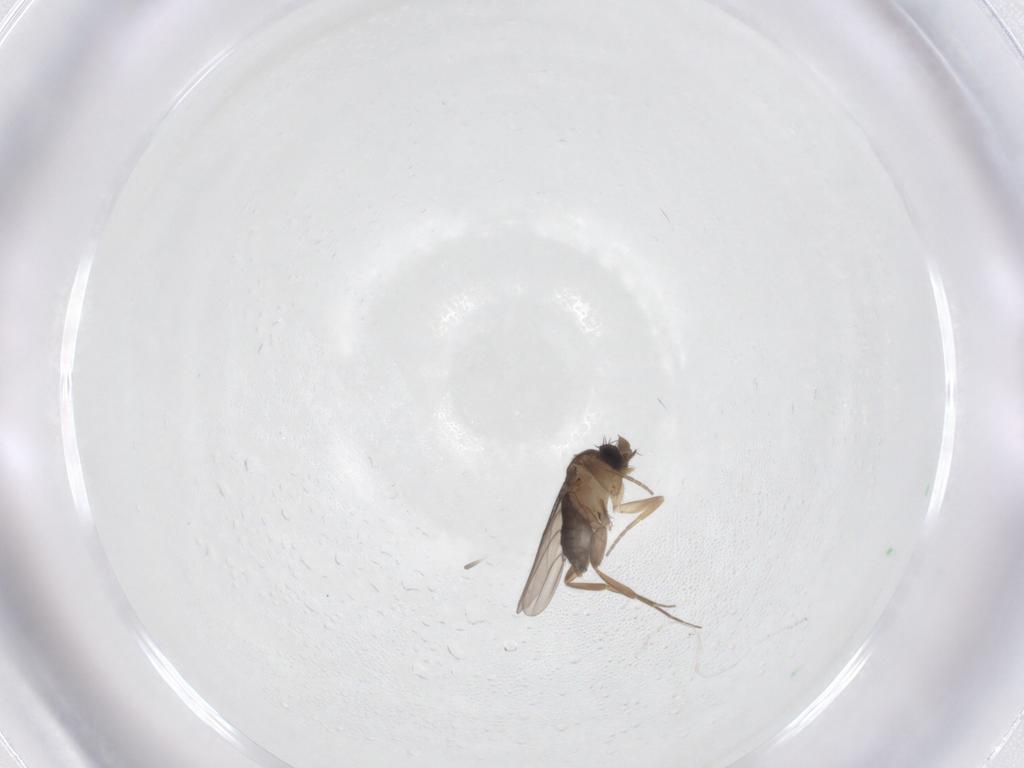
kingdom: Animalia
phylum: Arthropoda
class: Insecta
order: Diptera
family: Phoridae
